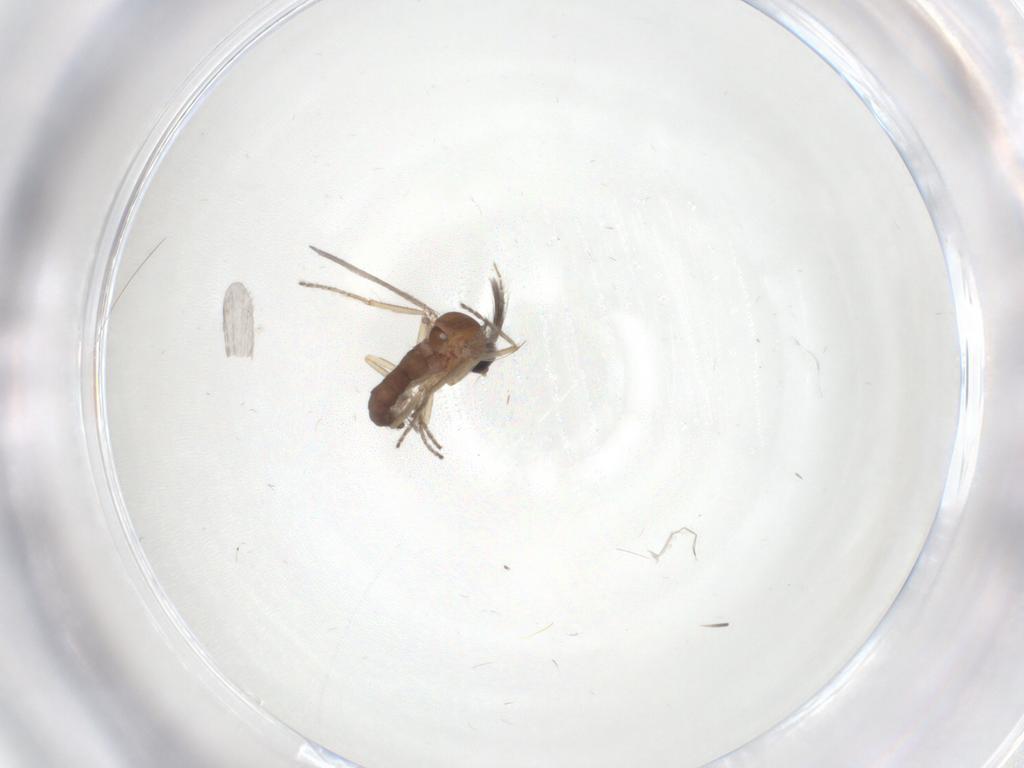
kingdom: Animalia
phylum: Arthropoda
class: Insecta
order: Diptera
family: Ceratopogonidae
